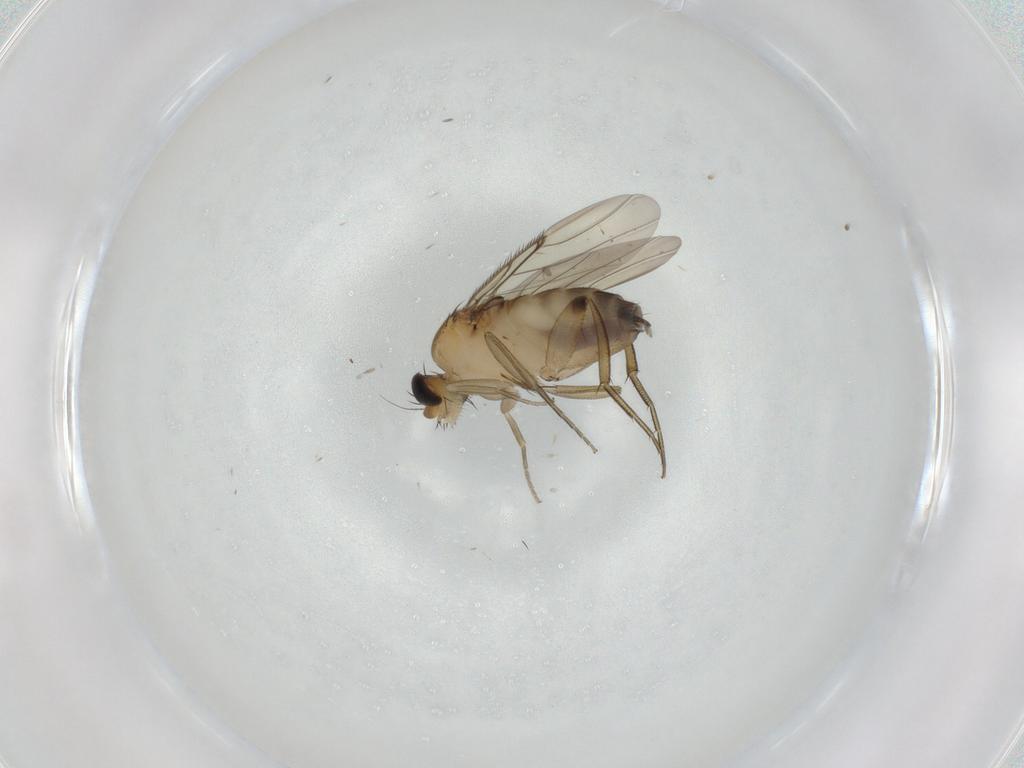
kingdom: Animalia
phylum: Arthropoda
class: Insecta
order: Diptera
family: Phoridae
